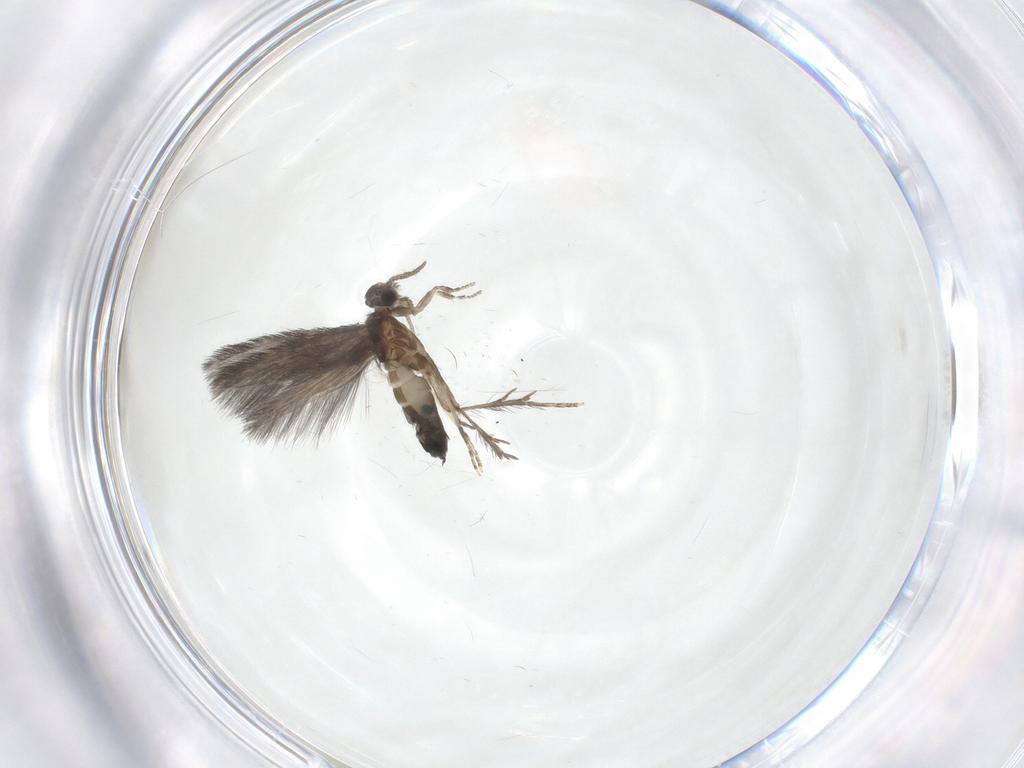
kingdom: Animalia
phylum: Arthropoda
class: Insecta
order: Trichoptera
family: Hydroptilidae
